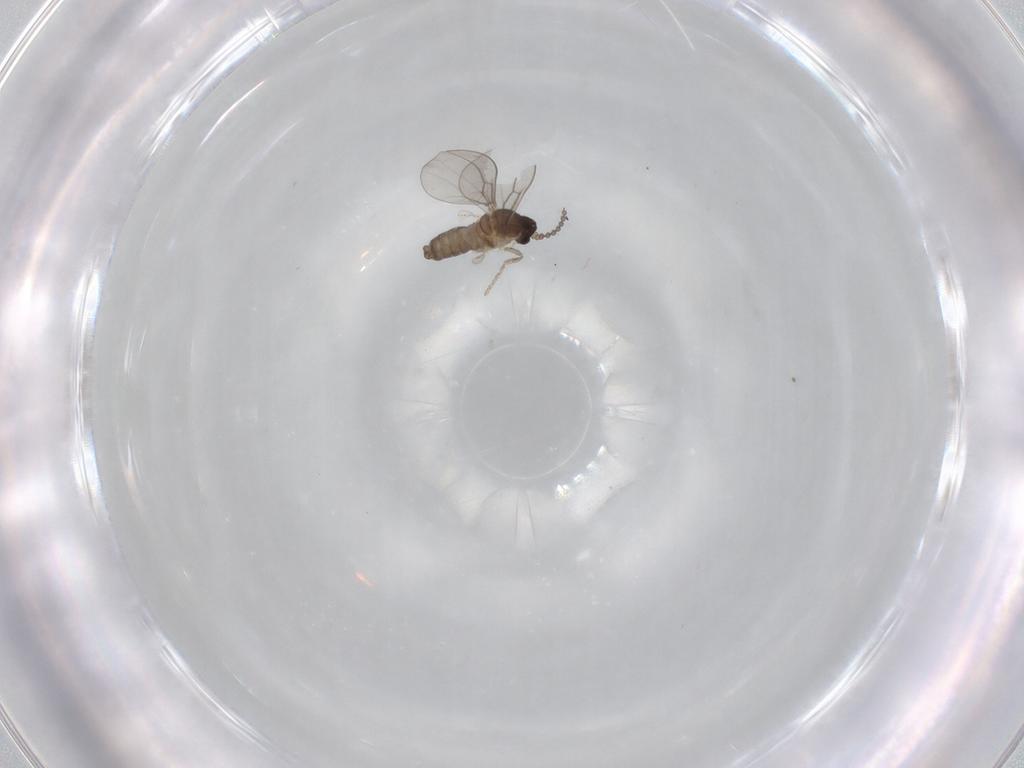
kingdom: Animalia
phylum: Arthropoda
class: Insecta
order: Diptera
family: Cecidomyiidae
